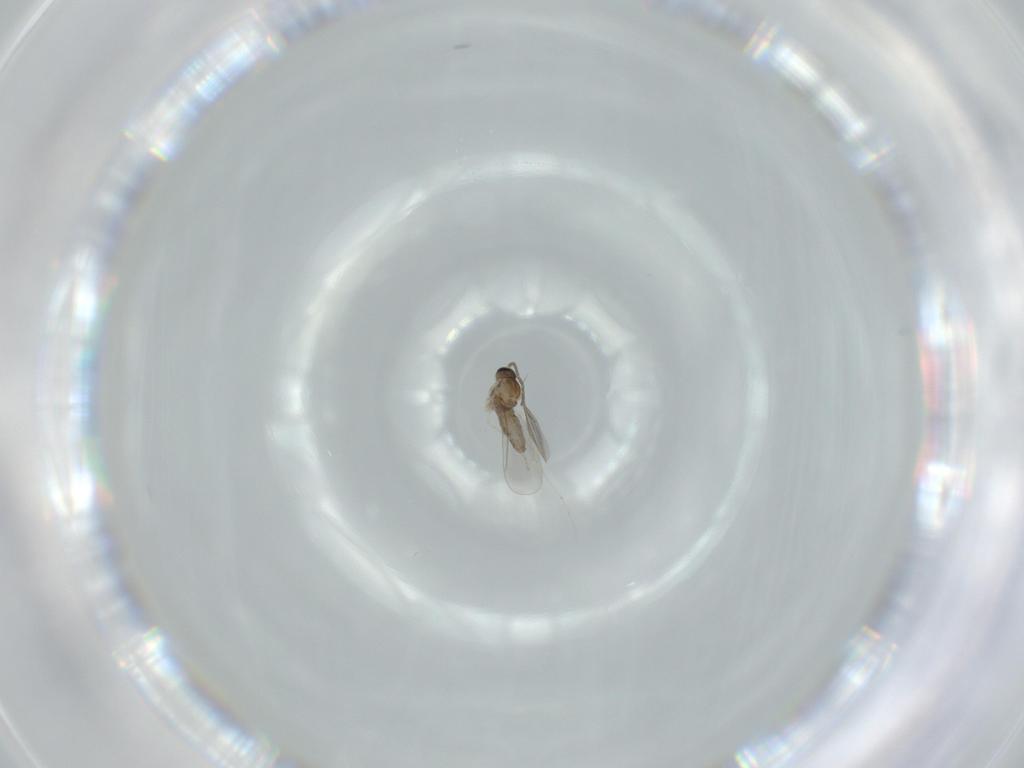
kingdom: Animalia
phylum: Arthropoda
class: Insecta
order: Diptera
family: Cecidomyiidae
